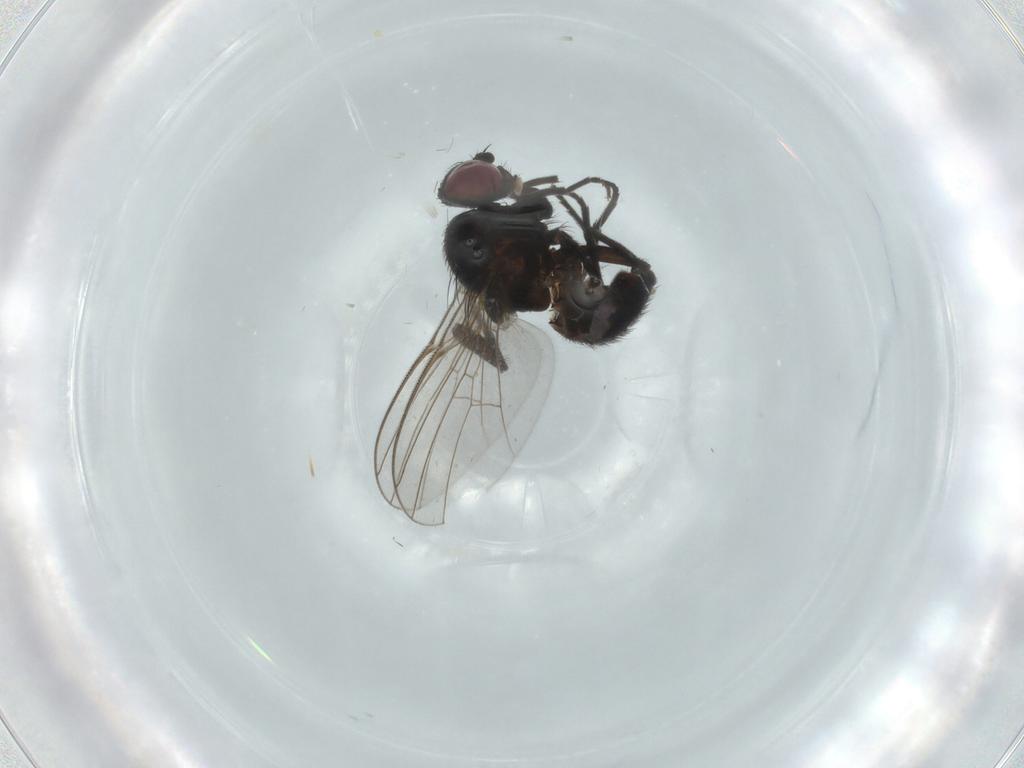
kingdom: Animalia
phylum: Arthropoda
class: Insecta
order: Diptera
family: Agromyzidae
